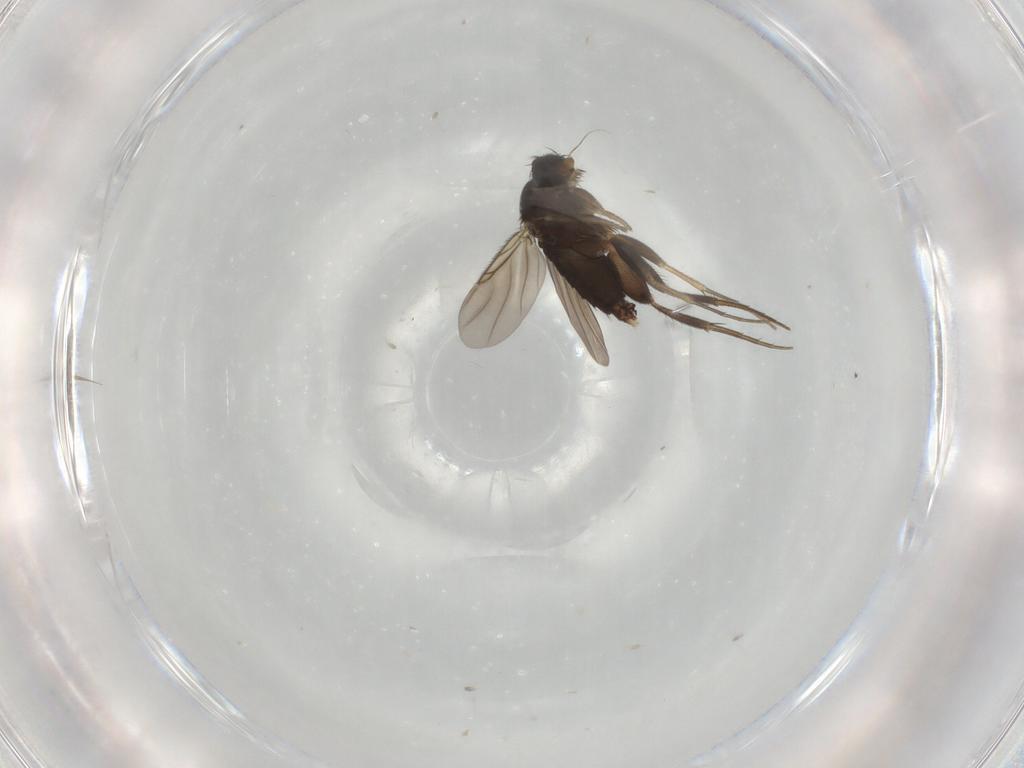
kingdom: Animalia
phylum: Arthropoda
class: Insecta
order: Diptera
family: Phoridae
